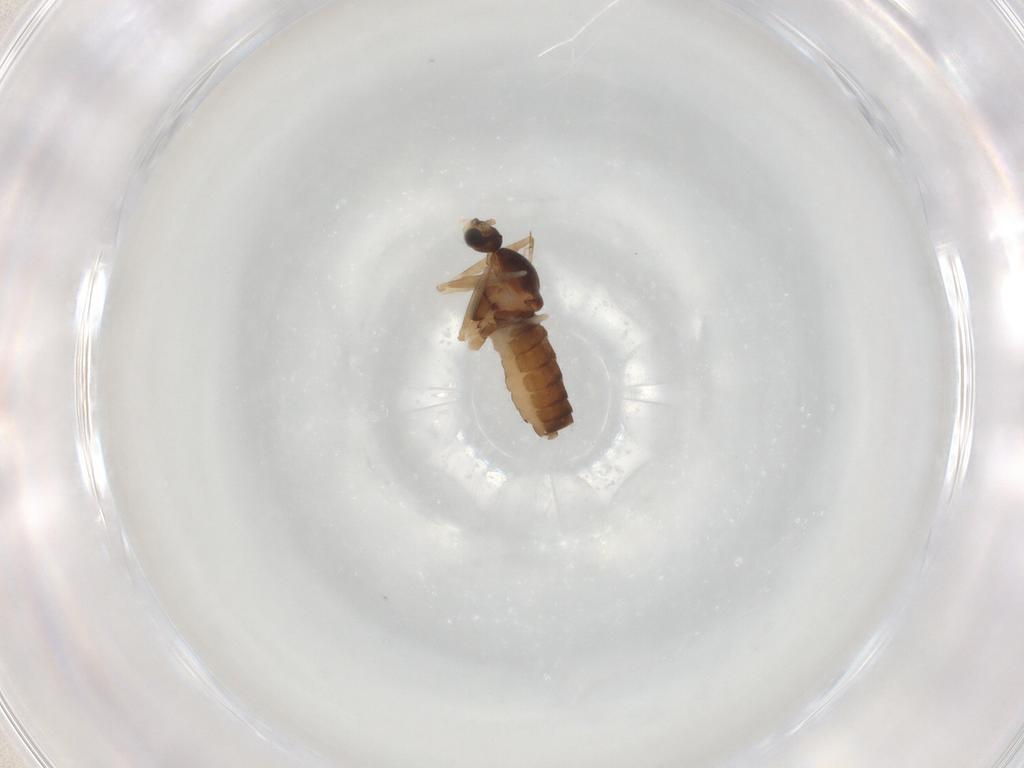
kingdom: Animalia
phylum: Arthropoda
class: Insecta
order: Diptera
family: Cecidomyiidae
